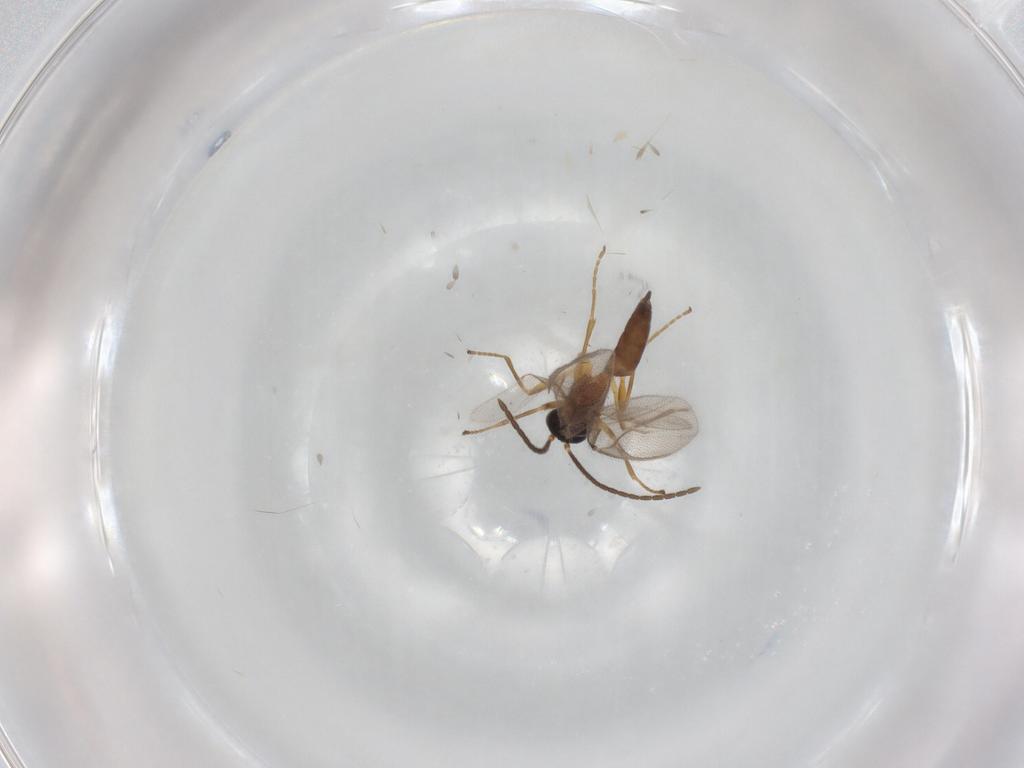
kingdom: Animalia
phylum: Arthropoda
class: Insecta
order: Hymenoptera
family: Braconidae
